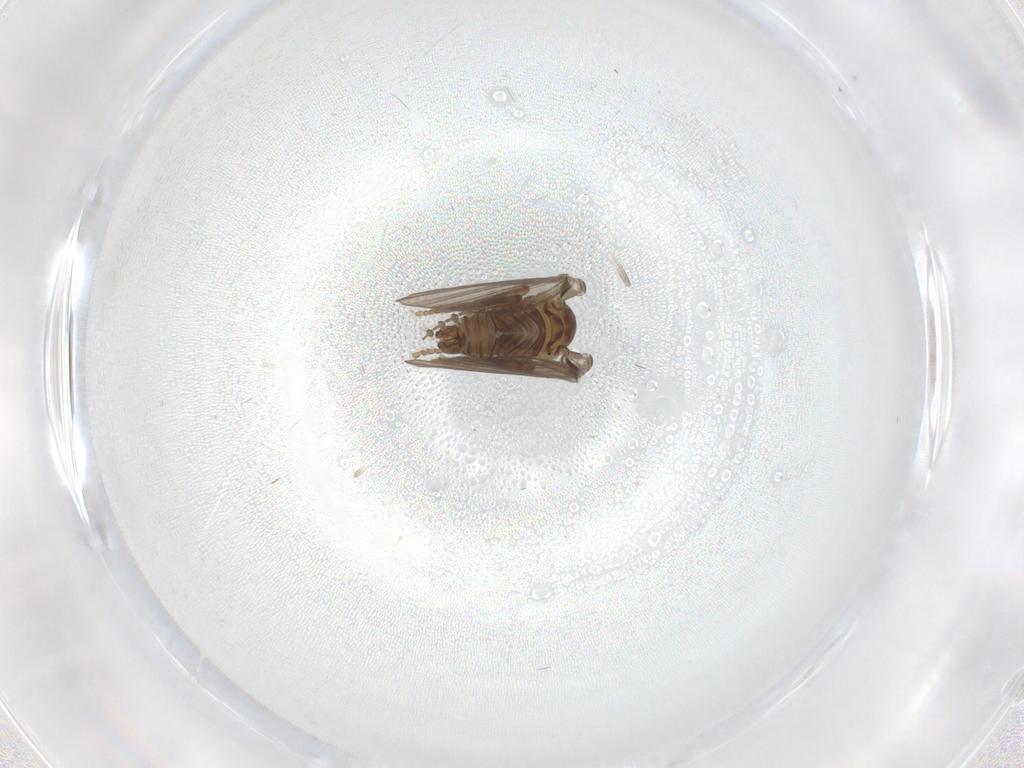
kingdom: Animalia
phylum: Arthropoda
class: Insecta
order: Diptera
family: Psychodidae
